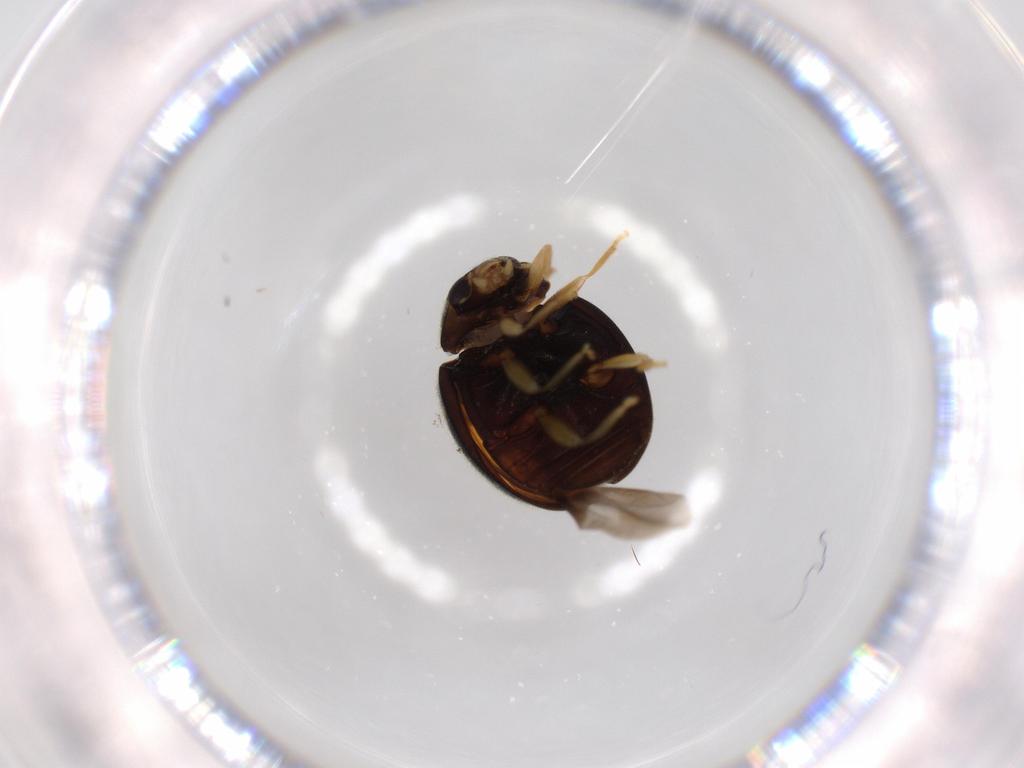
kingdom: Animalia
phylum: Arthropoda
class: Insecta
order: Coleoptera
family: Coccinellidae
